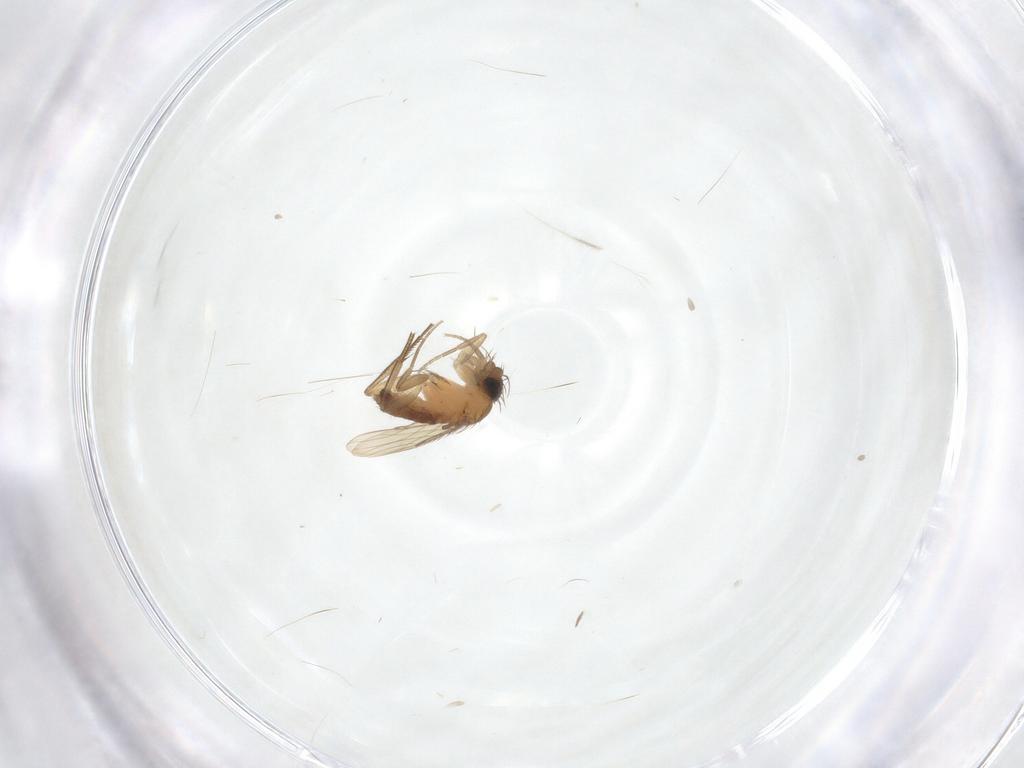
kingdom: Animalia
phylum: Arthropoda
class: Insecta
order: Diptera
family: Phoridae
